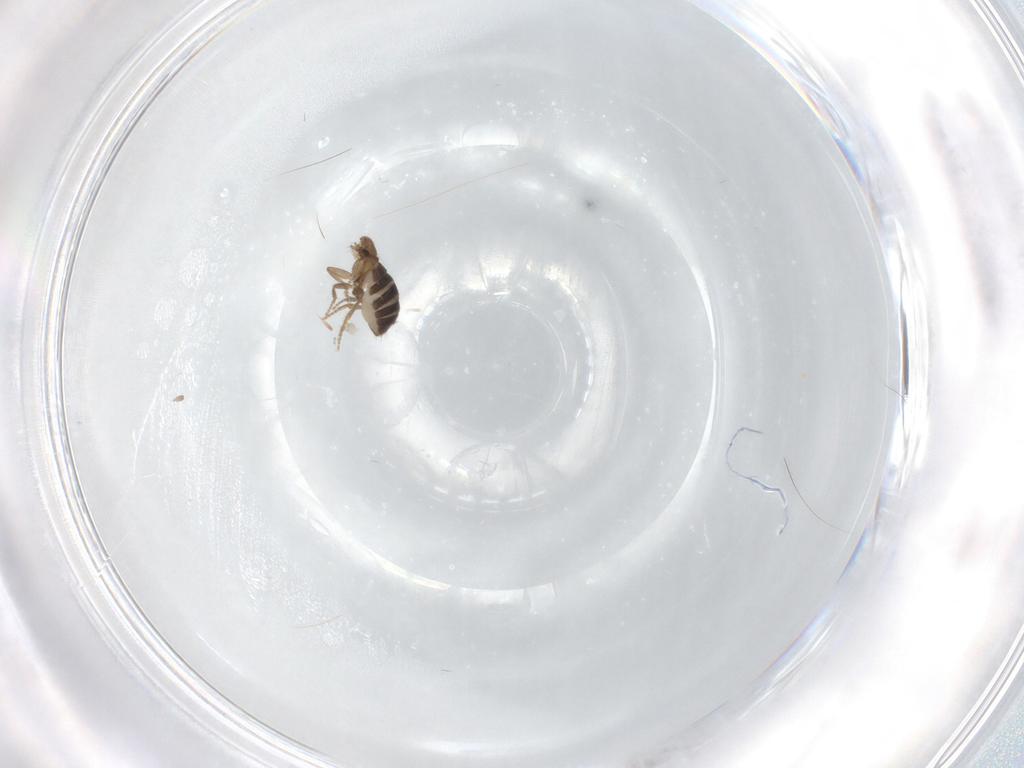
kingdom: Animalia
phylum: Arthropoda
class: Insecta
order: Diptera
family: Phoridae
